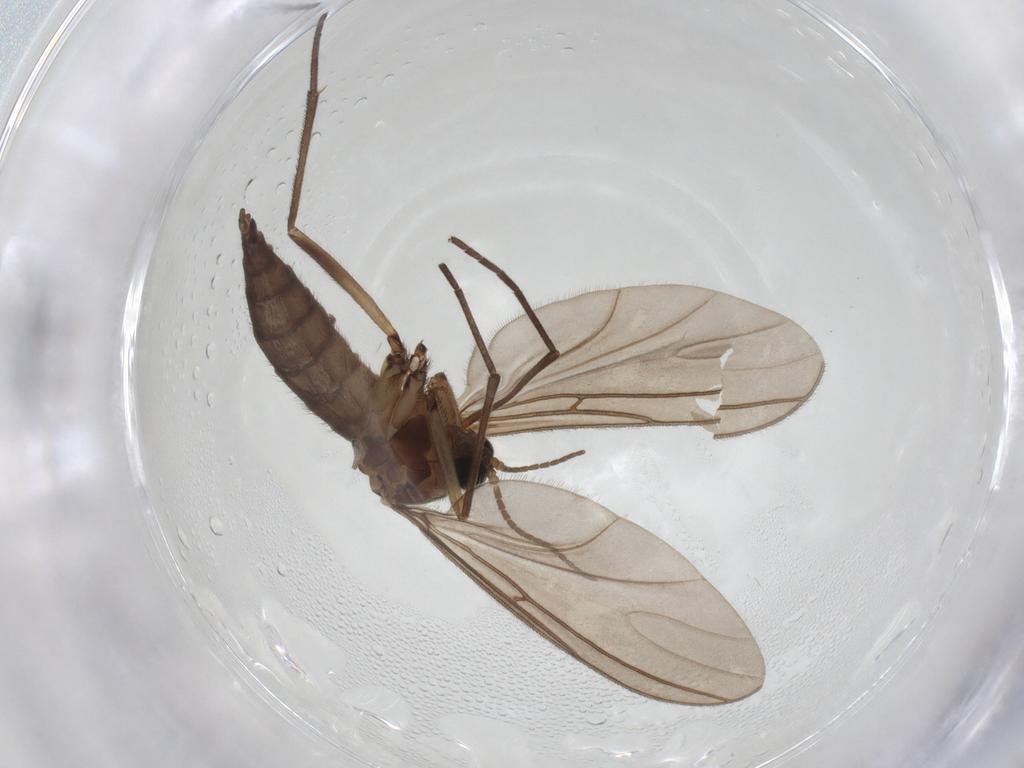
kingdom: Animalia
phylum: Arthropoda
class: Insecta
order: Diptera
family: Sciaridae
